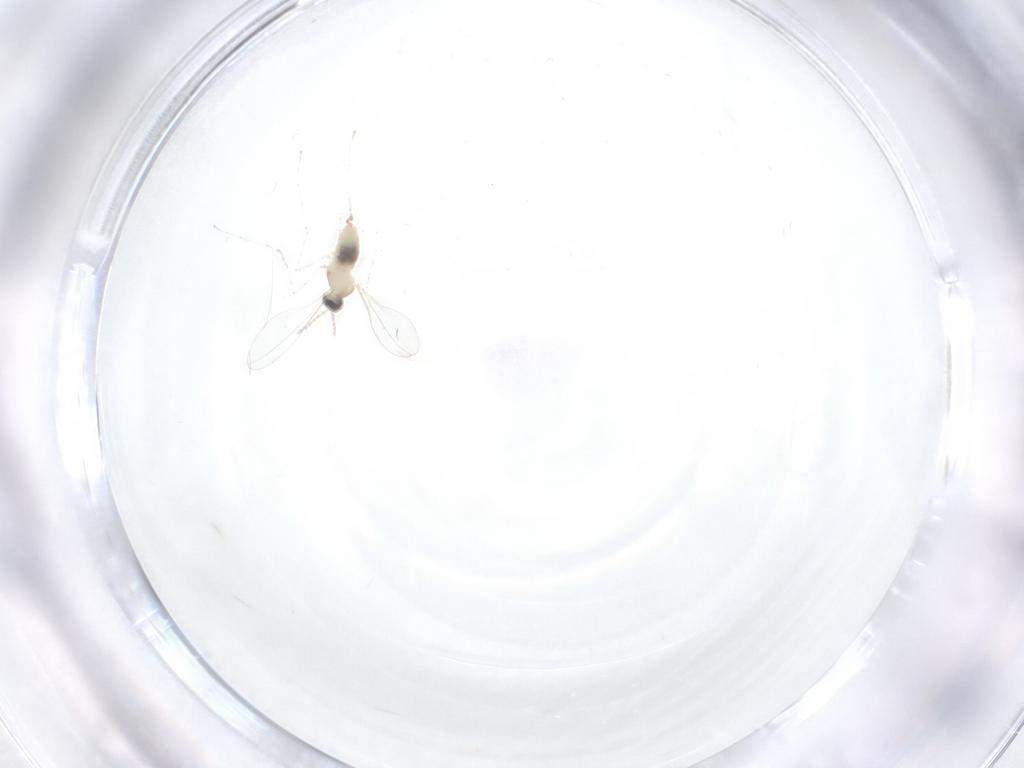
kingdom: Animalia
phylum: Arthropoda
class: Insecta
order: Diptera
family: Cecidomyiidae
